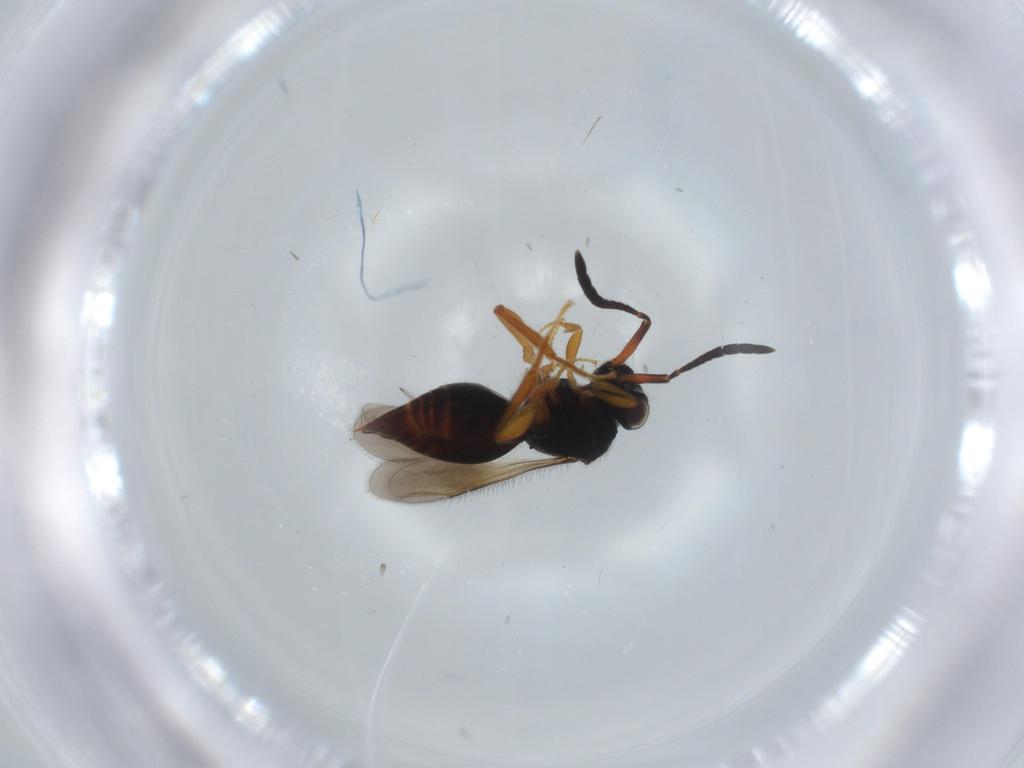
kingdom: Animalia
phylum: Arthropoda
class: Insecta
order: Hymenoptera
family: Ceraphronidae
